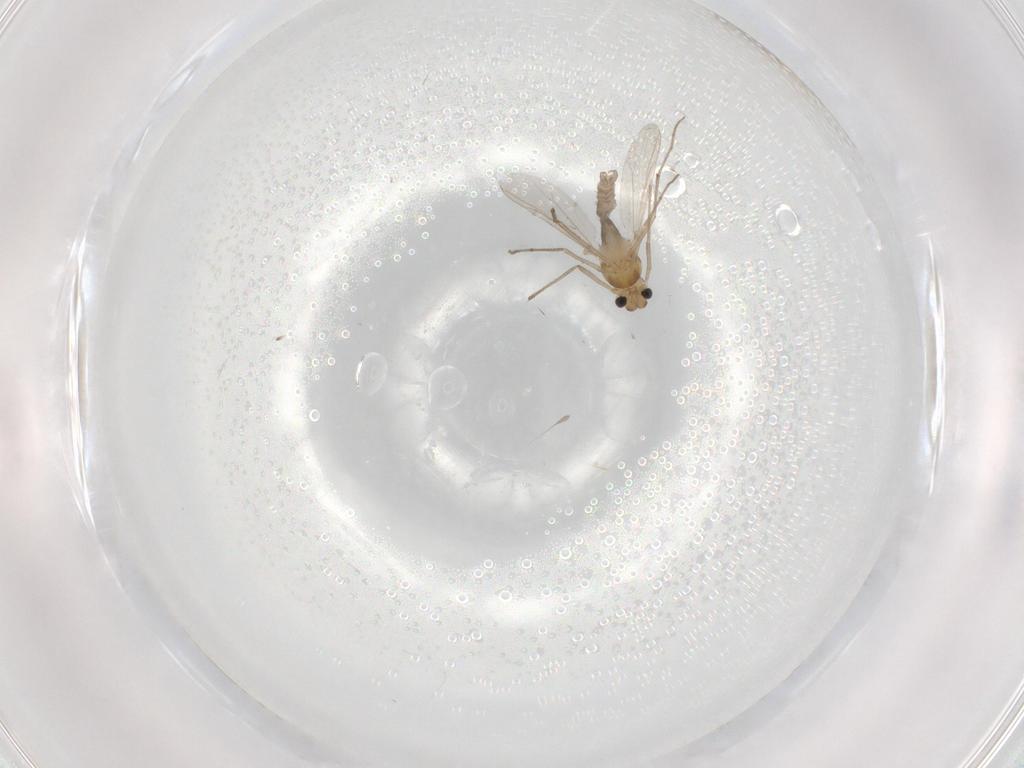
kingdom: Animalia
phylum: Arthropoda
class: Insecta
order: Diptera
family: Chironomidae
